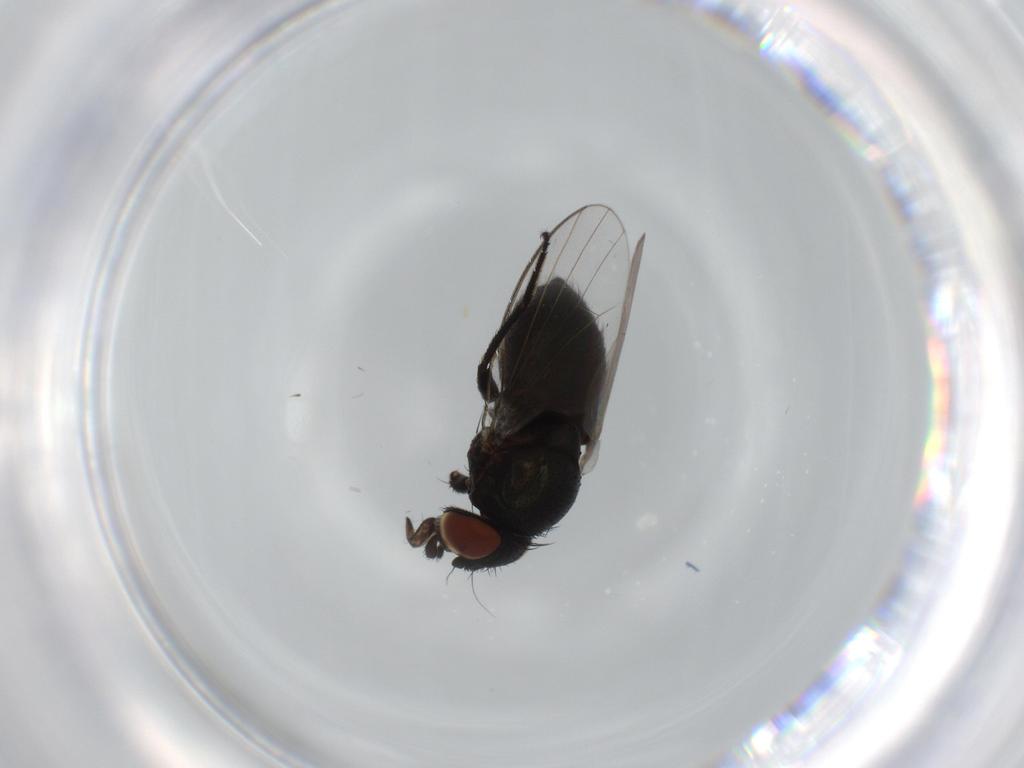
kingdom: Animalia
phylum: Arthropoda
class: Insecta
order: Diptera
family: Milichiidae
